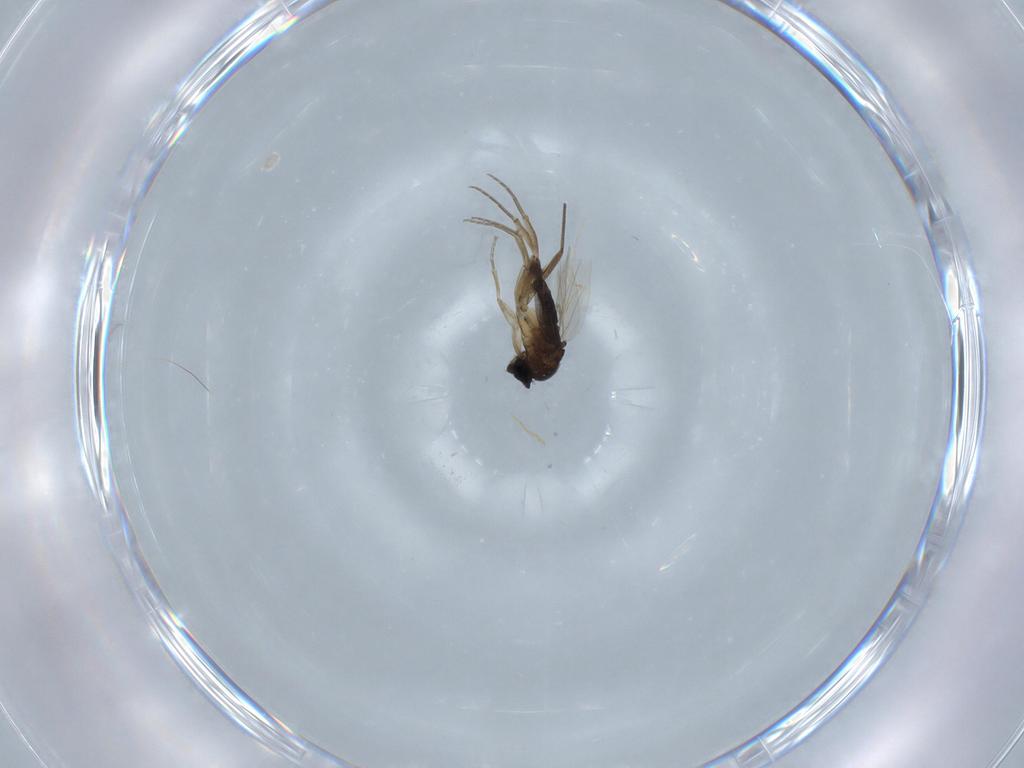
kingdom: Animalia
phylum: Arthropoda
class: Insecta
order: Diptera
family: Phoridae
